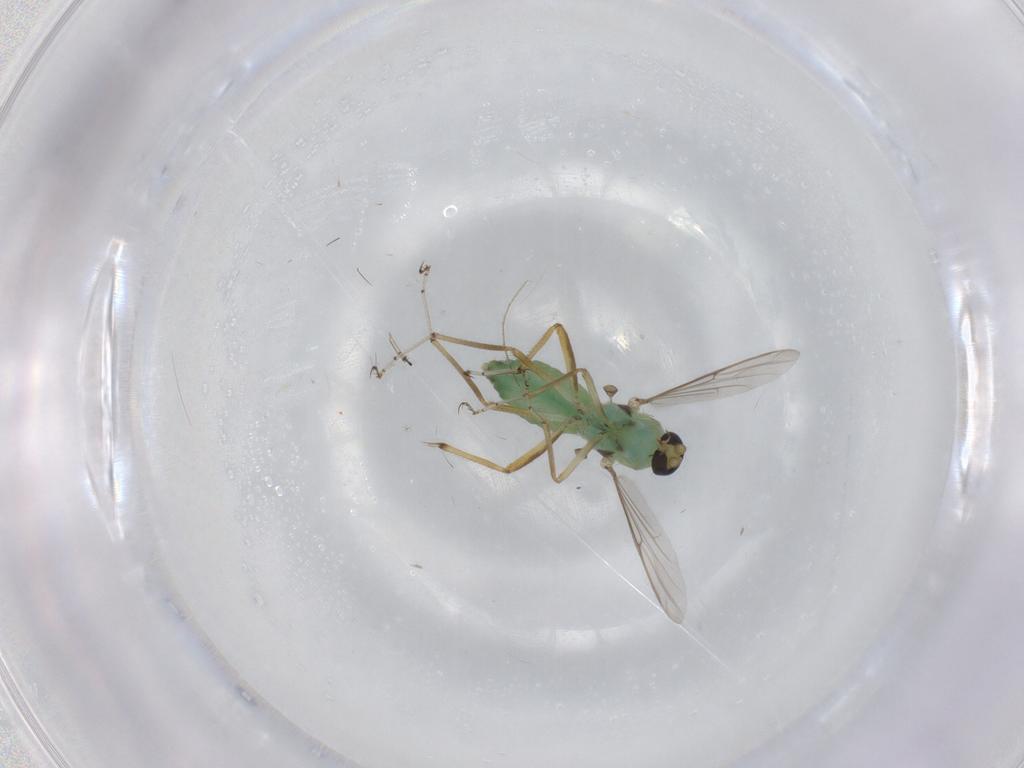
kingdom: Animalia
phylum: Arthropoda
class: Insecta
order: Diptera
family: Ceratopogonidae
